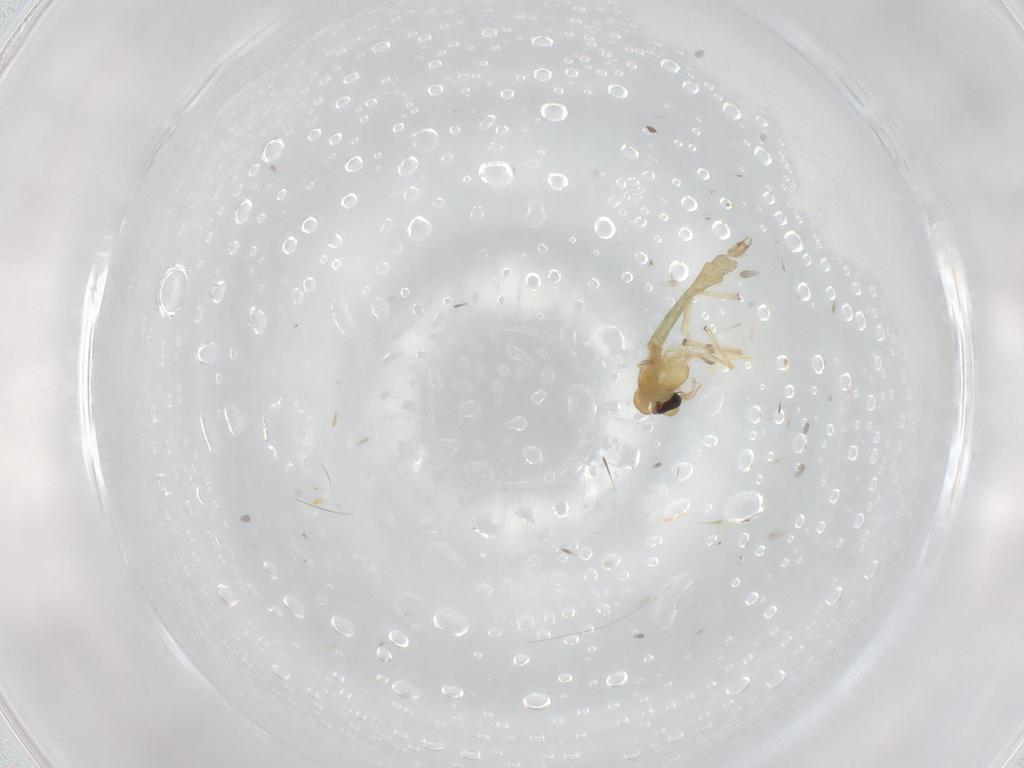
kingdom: Animalia
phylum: Arthropoda
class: Insecta
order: Diptera
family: Chironomidae
